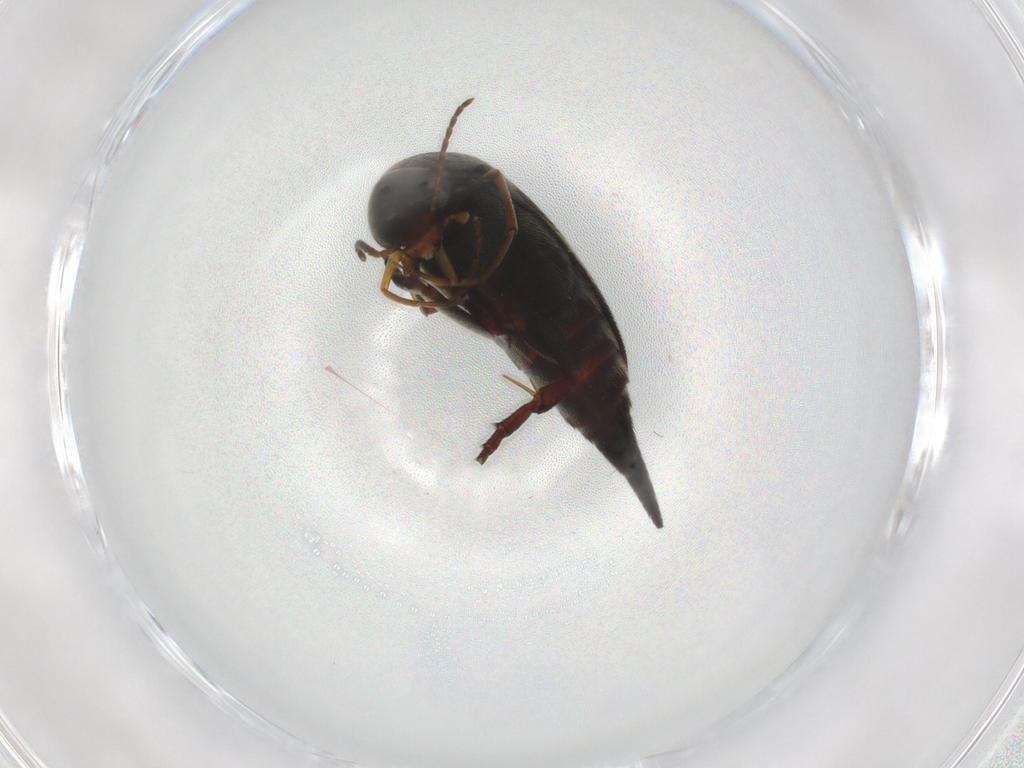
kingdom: Animalia
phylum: Arthropoda
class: Insecta
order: Coleoptera
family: Mordellidae
